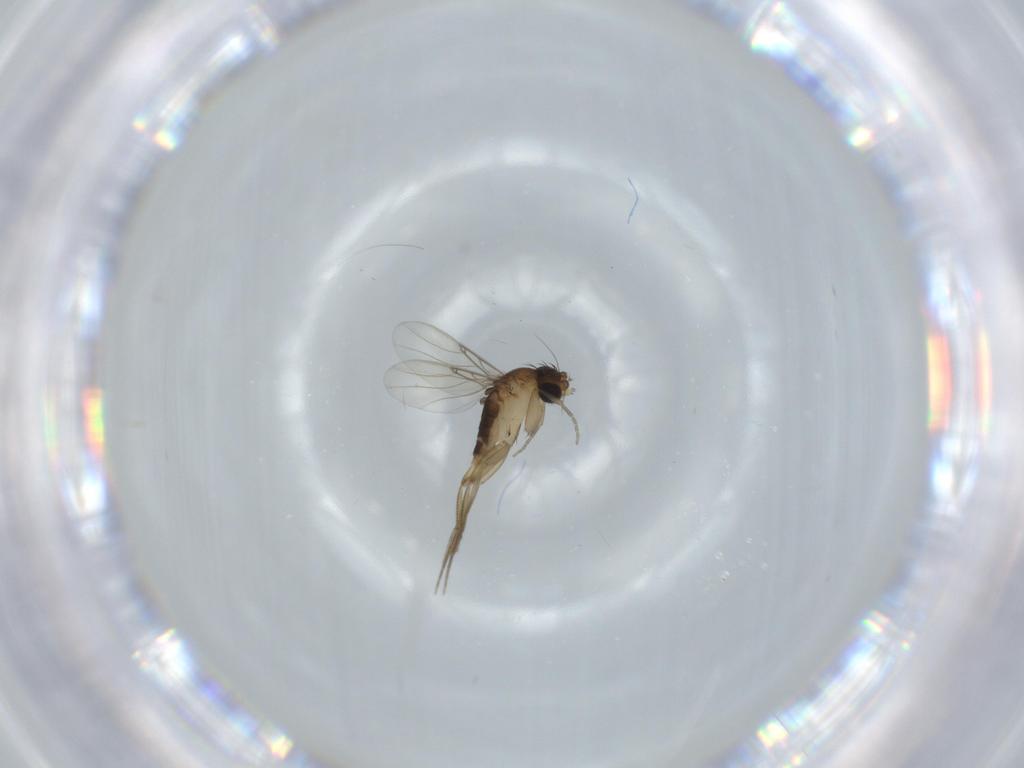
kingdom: Animalia
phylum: Arthropoda
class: Insecta
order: Diptera
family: Phoridae
